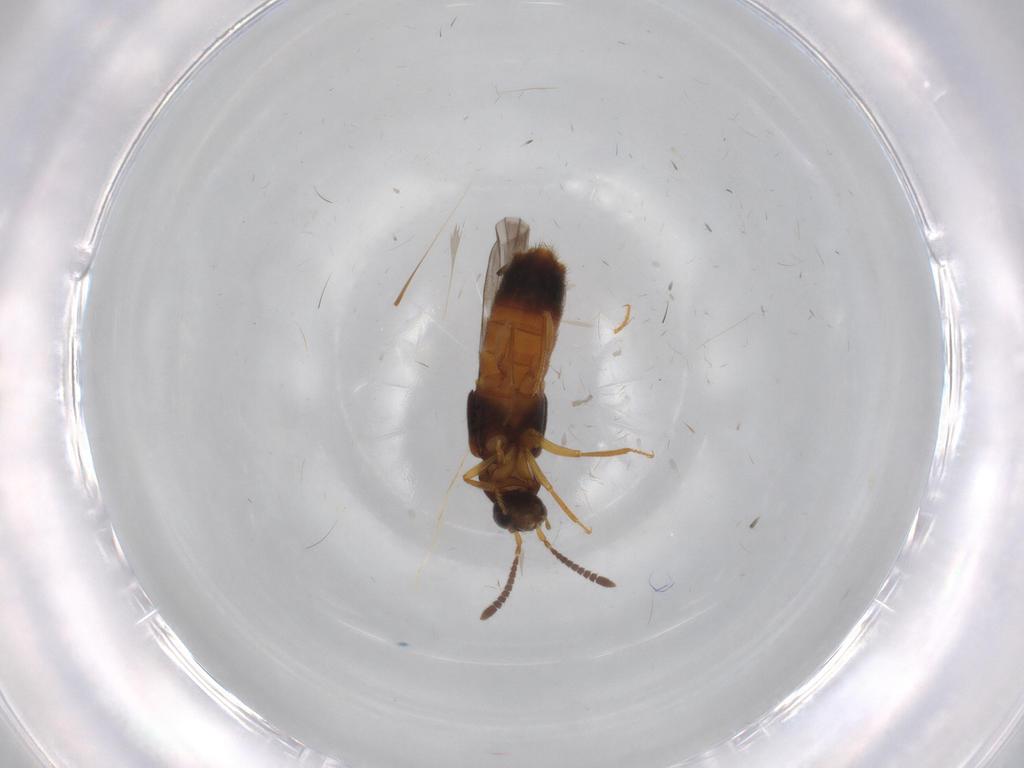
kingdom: Animalia
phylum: Arthropoda
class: Insecta
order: Coleoptera
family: Staphylinidae
